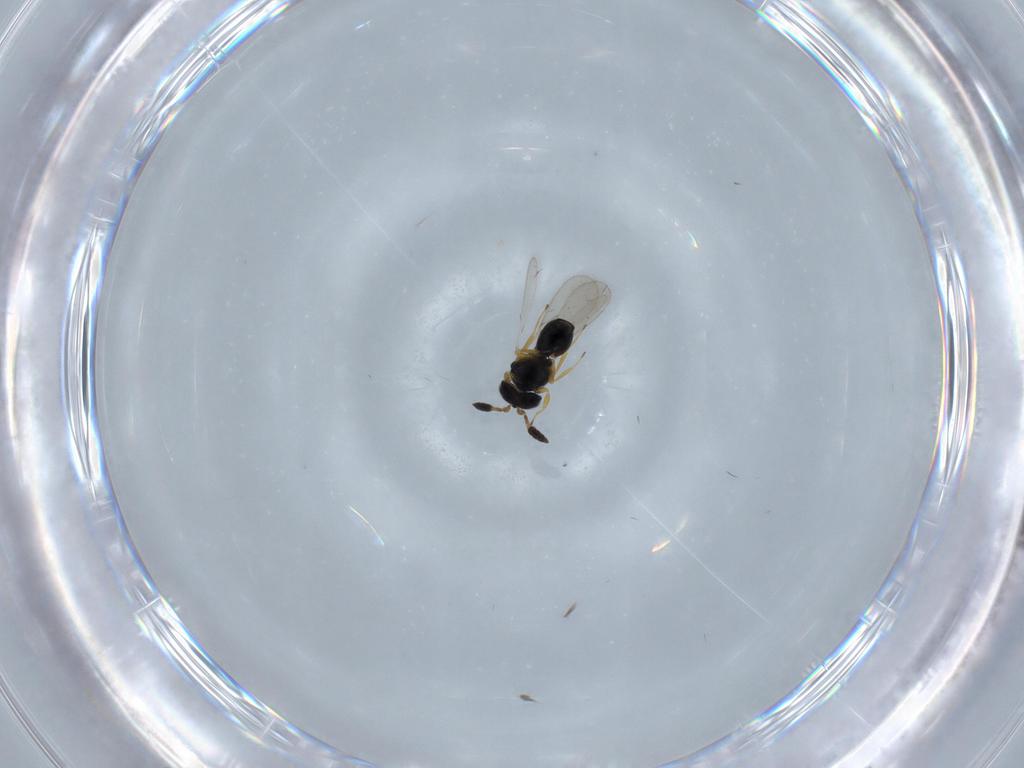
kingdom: Animalia
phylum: Arthropoda
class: Insecta
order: Hymenoptera
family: Scelionidae
